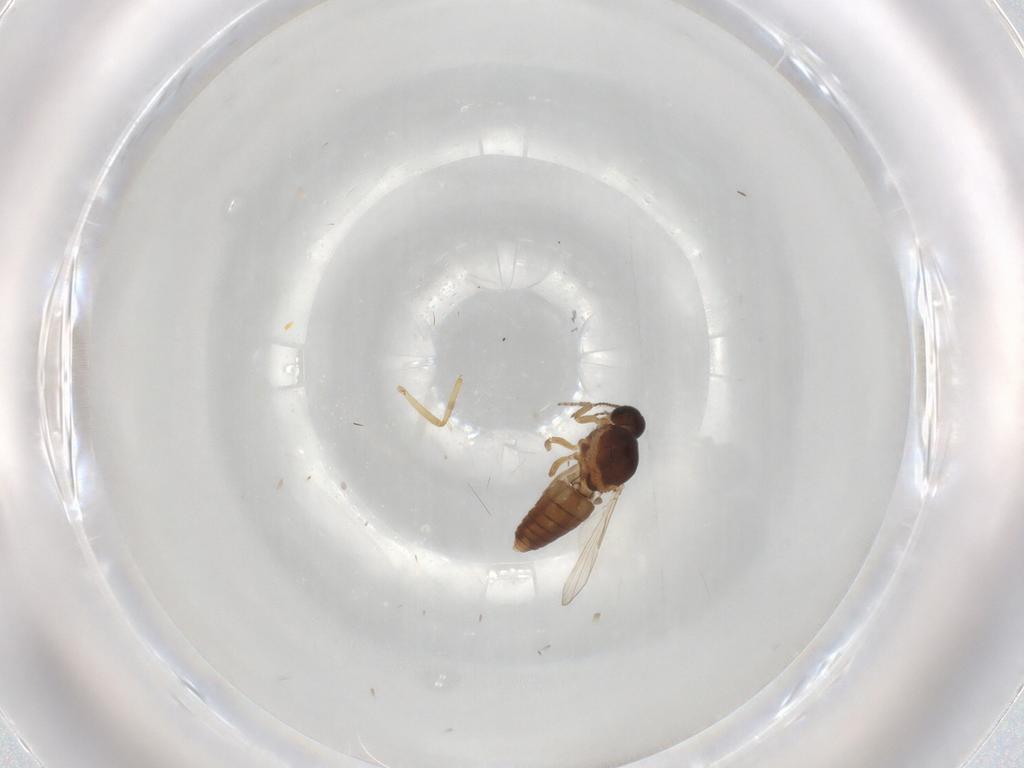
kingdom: Animalia
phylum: Arthropoda
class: Insecta
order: Diptera
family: Ceratopogonidae
